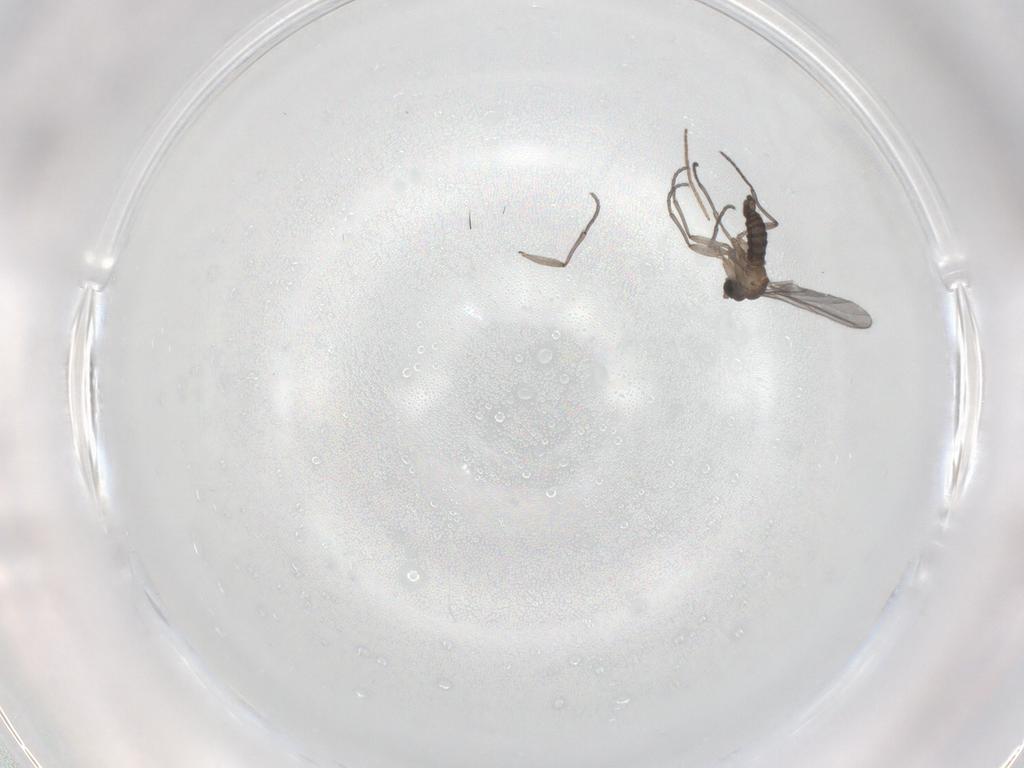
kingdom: Animalia
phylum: Arthropoda
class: Insecta
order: Diptera
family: Sciaridae
